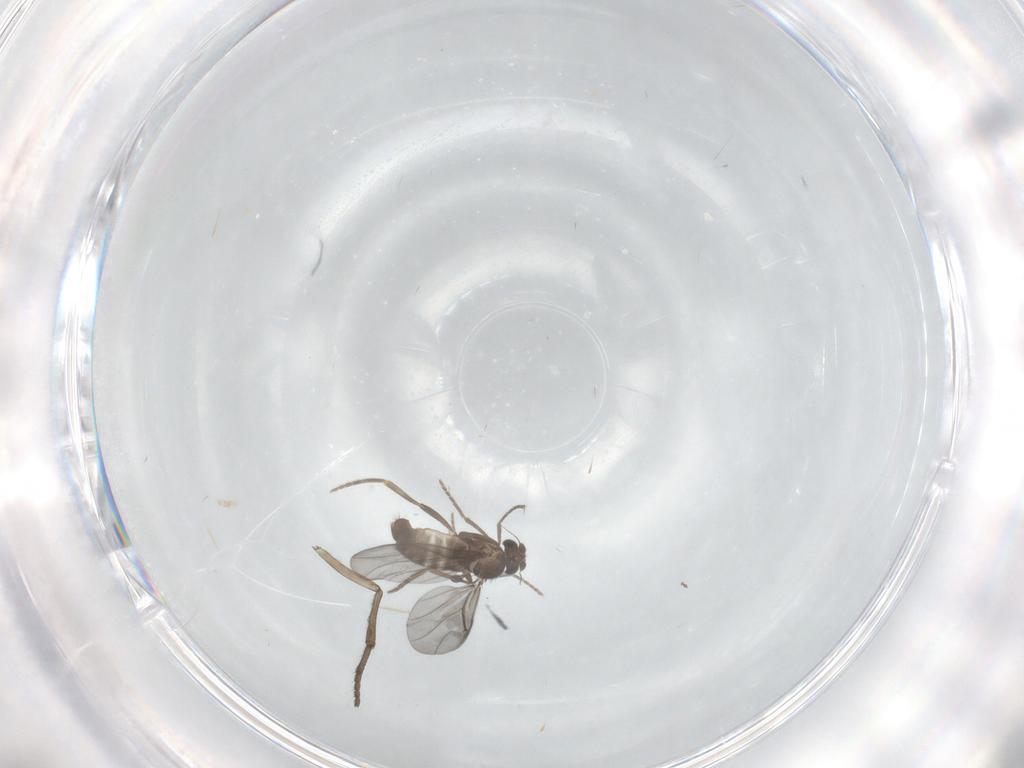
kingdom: Animalia
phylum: Arthropoda
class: Insecta
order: Diptera
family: Phoridae
